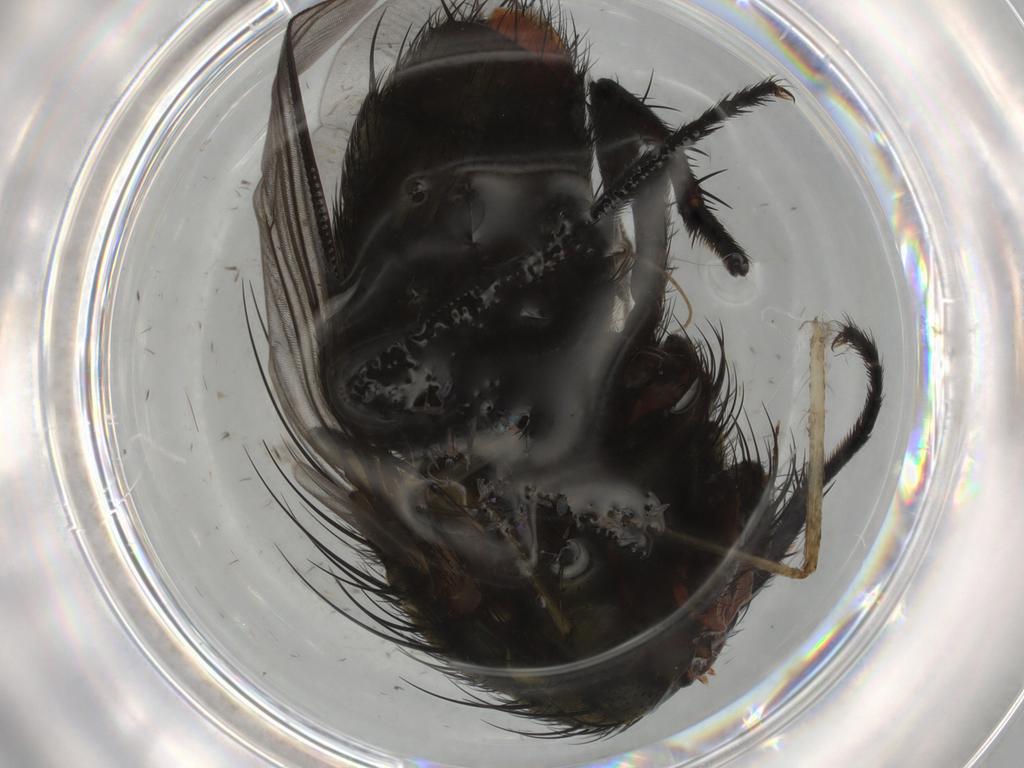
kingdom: Animalia
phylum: Arthropoda
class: Insecta
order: Diptera
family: Sarcophagidae
